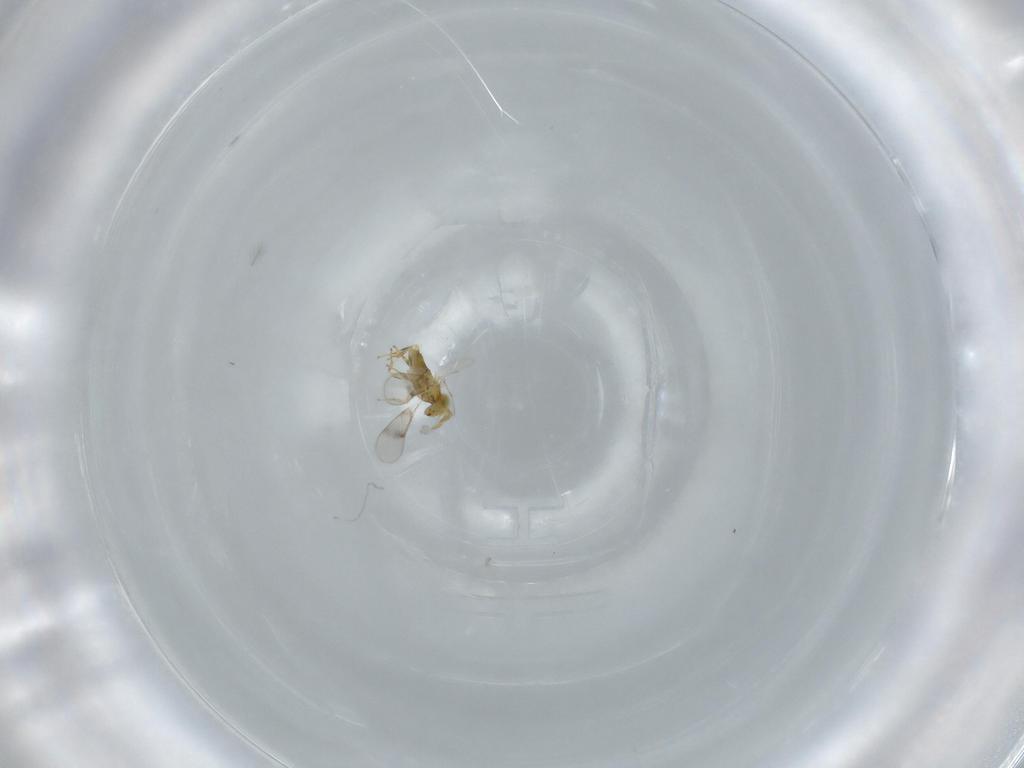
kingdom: Animalia
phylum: Arthropoda
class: Insecta
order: Hymenoptera
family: Aphelinidae
